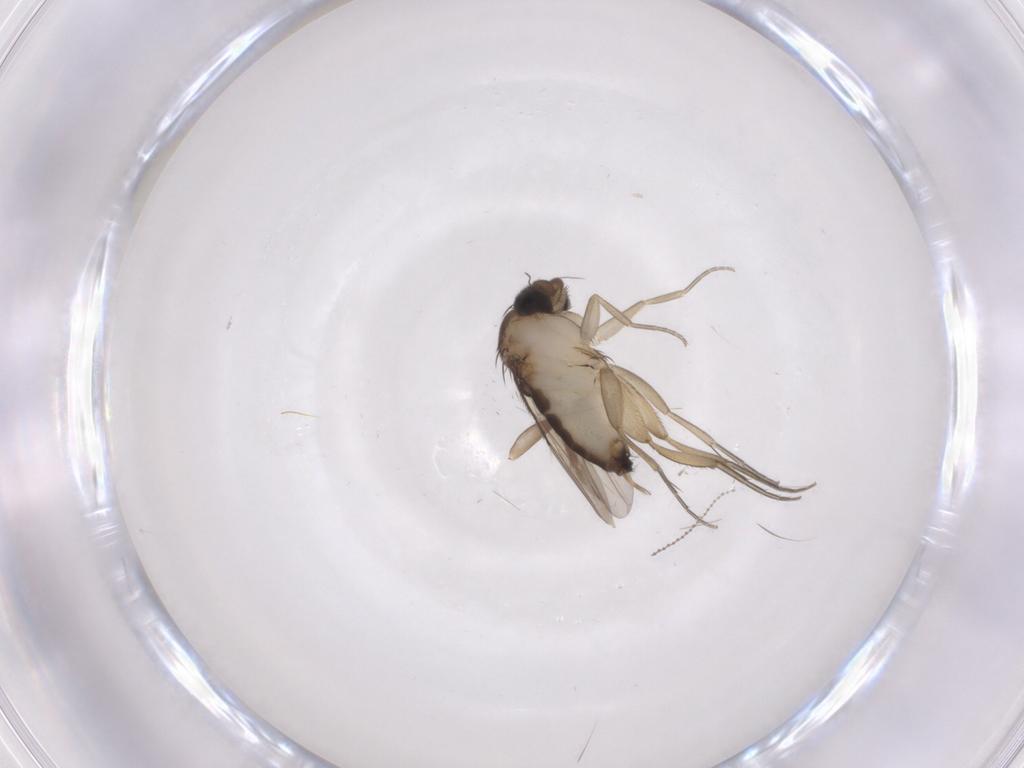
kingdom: Animalia
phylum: Arthropoda
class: Insecta
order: Diptera
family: Phoridae
